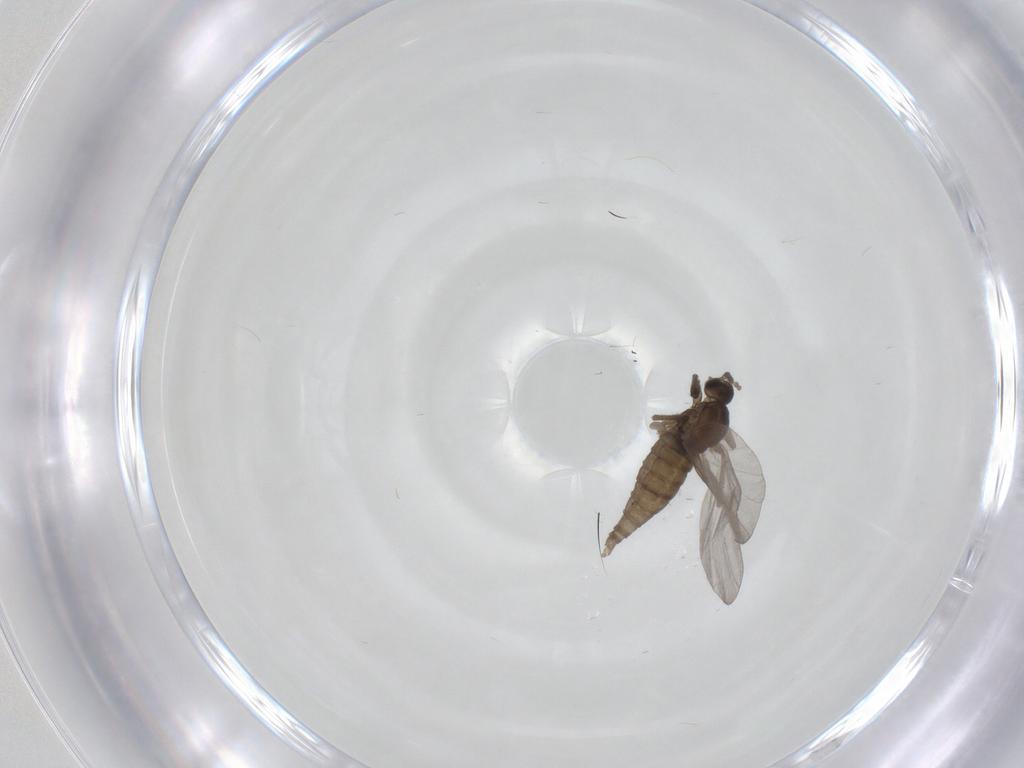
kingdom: Animalia
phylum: Arthropoda
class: Insecta
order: Diptera
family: Cecidomyiidae
